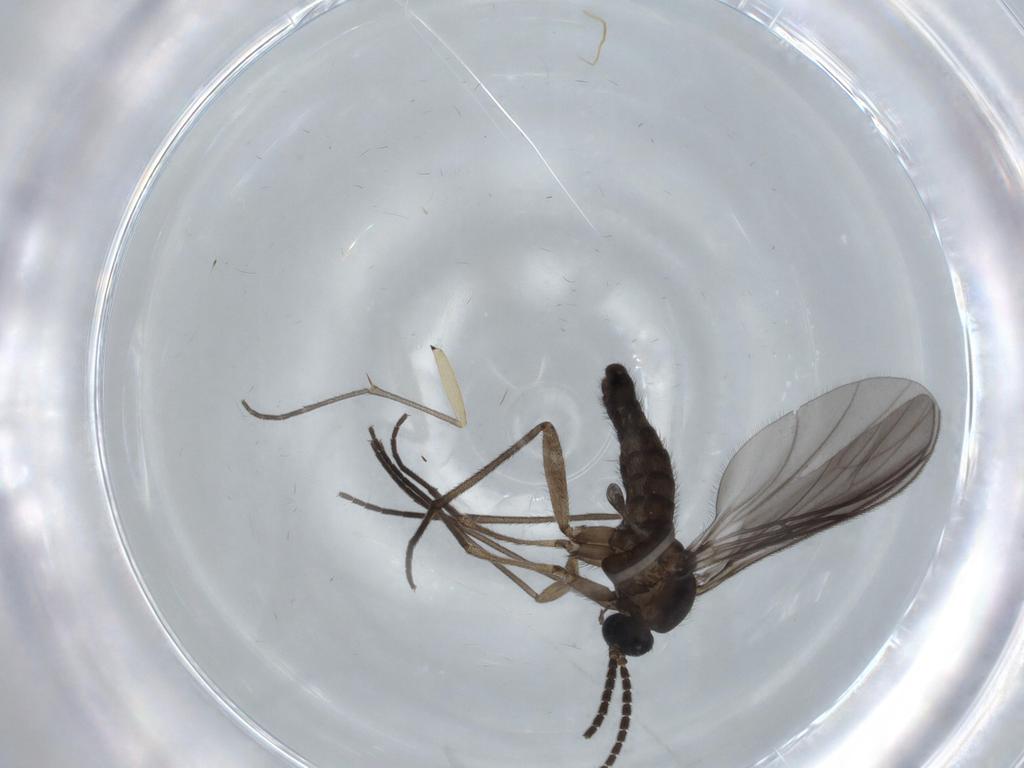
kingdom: Animalia
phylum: Arthropoda
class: Insecta
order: Diptera
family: Sciaridae
